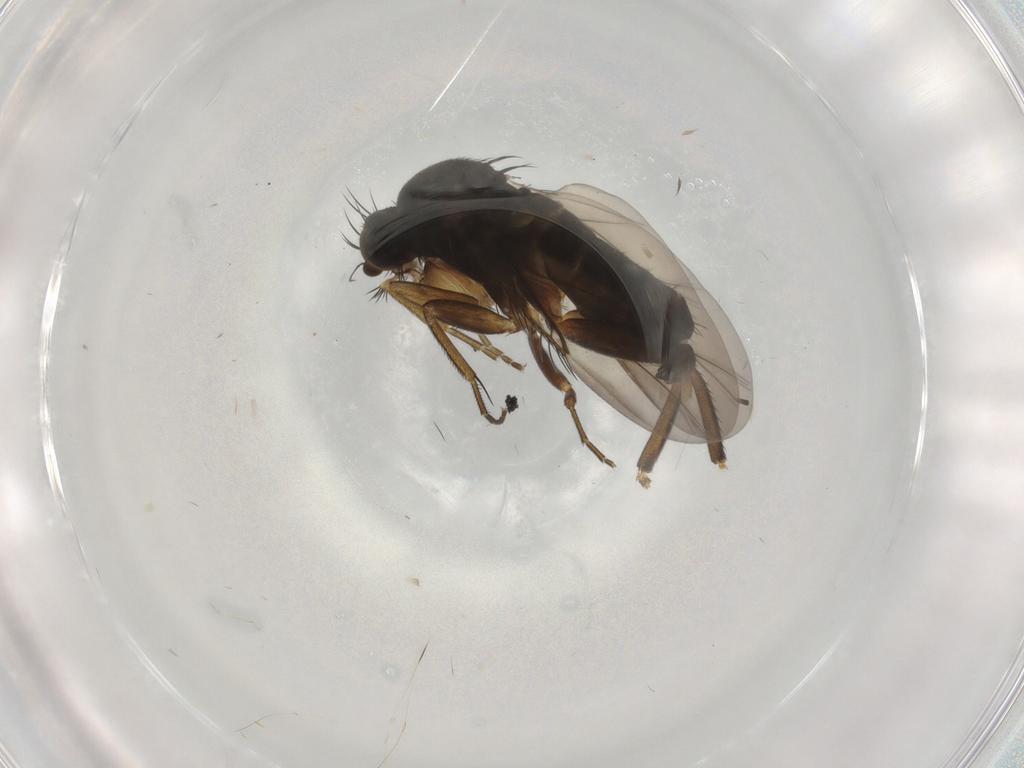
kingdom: Animalia
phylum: Arthropoda
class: Insecta
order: Diptera
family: Phoridae
